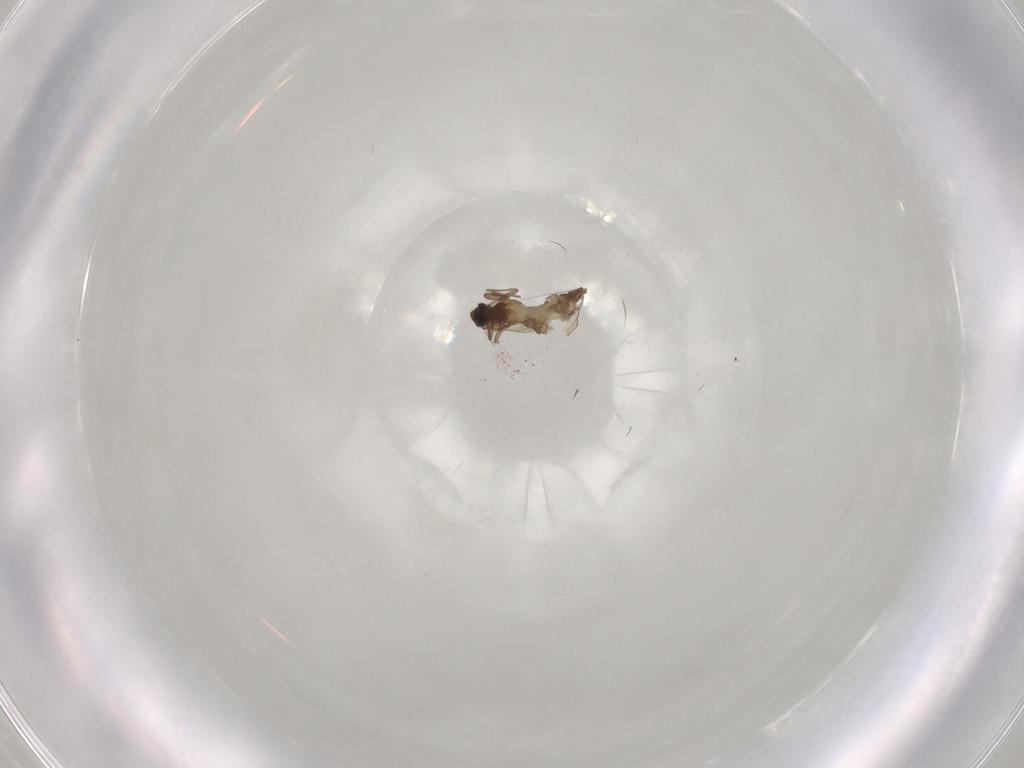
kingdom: Animalia
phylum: Arthropoda
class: Insecta
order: Diptera
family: Chironomidae
